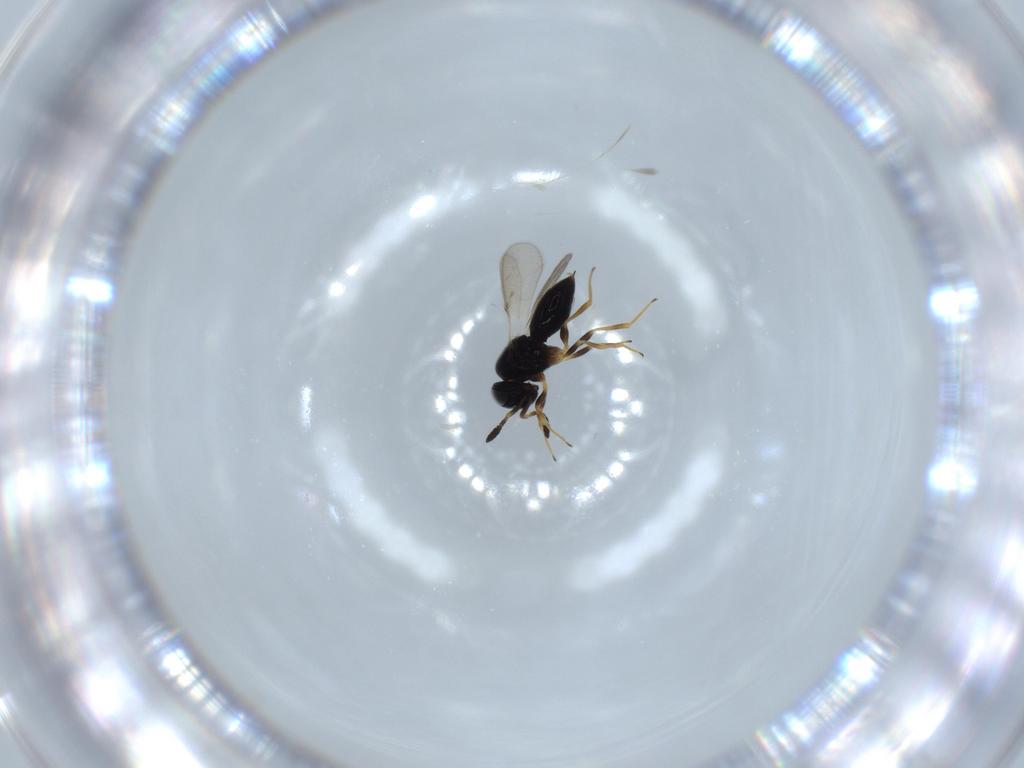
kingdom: Animalia
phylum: Arthropoda
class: Insecta
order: Hymenoptera
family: Scelionidae
